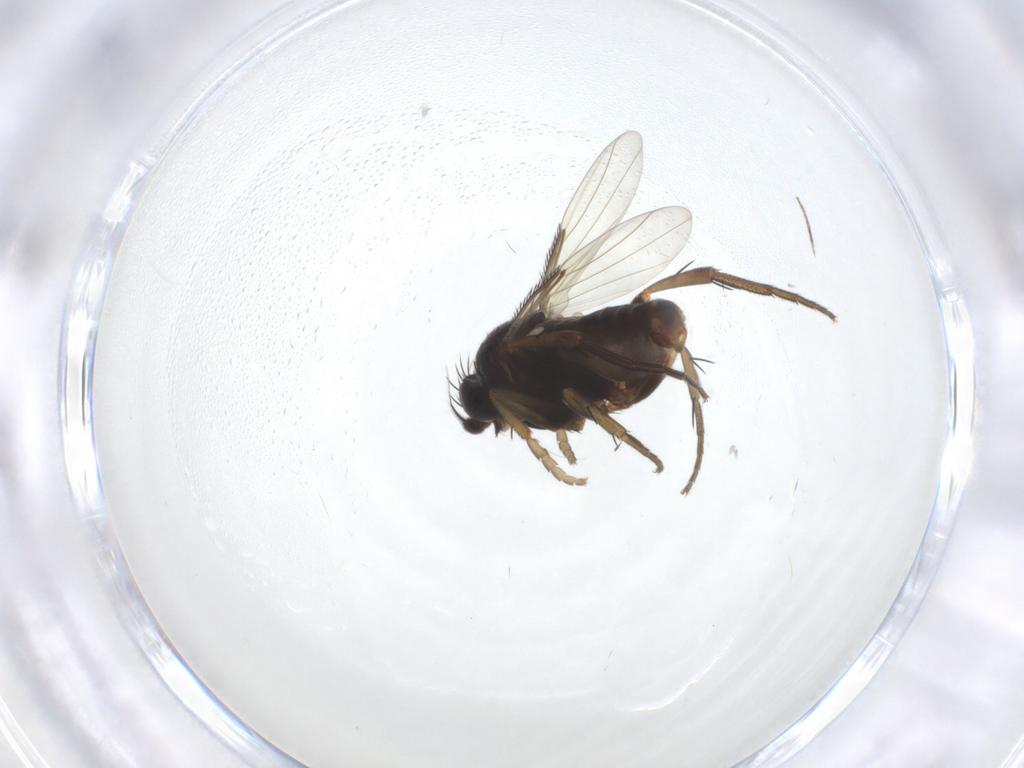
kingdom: Animalia
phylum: Arthropoda
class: Insecta
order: Diptera
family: Phoridae
